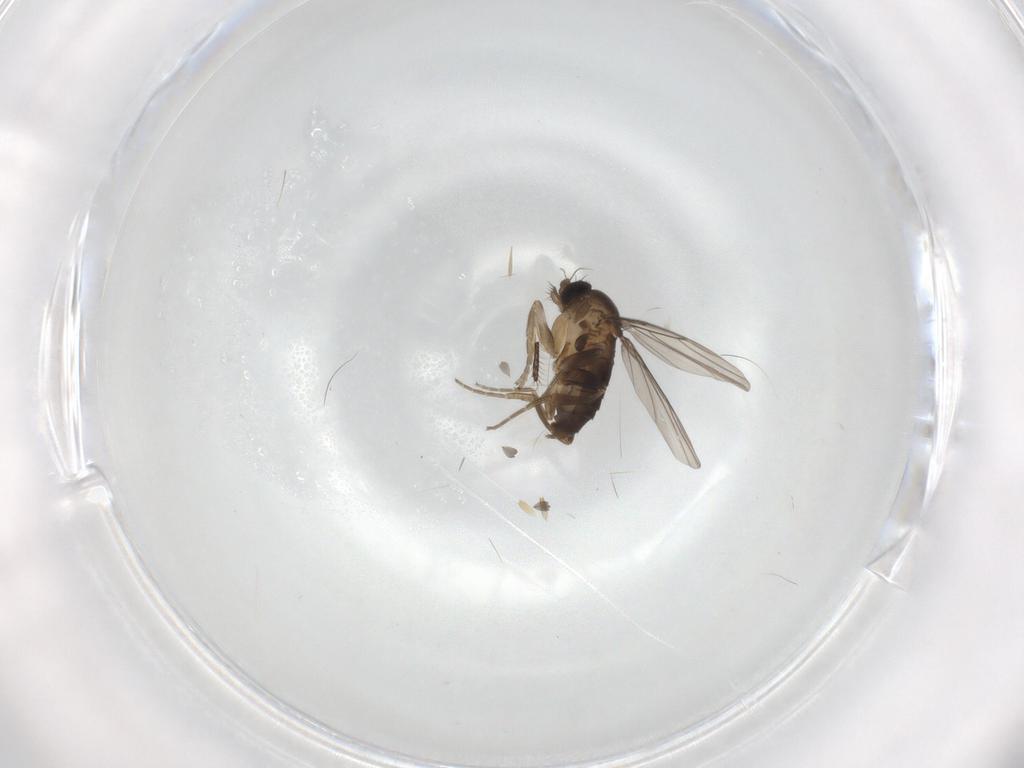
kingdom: Animalia
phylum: Arthropoda
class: Insecta
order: Diptera
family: Phoridae
